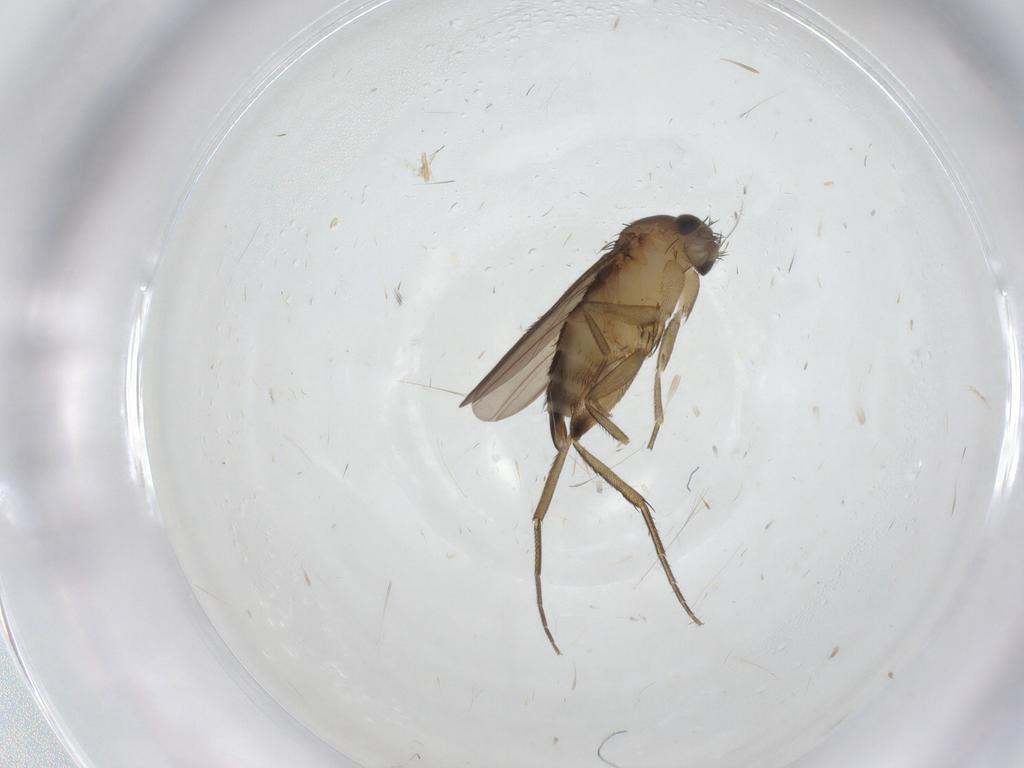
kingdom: Animalia
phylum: Arthropoda
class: Insecta
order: Diptera
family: Phoridae
